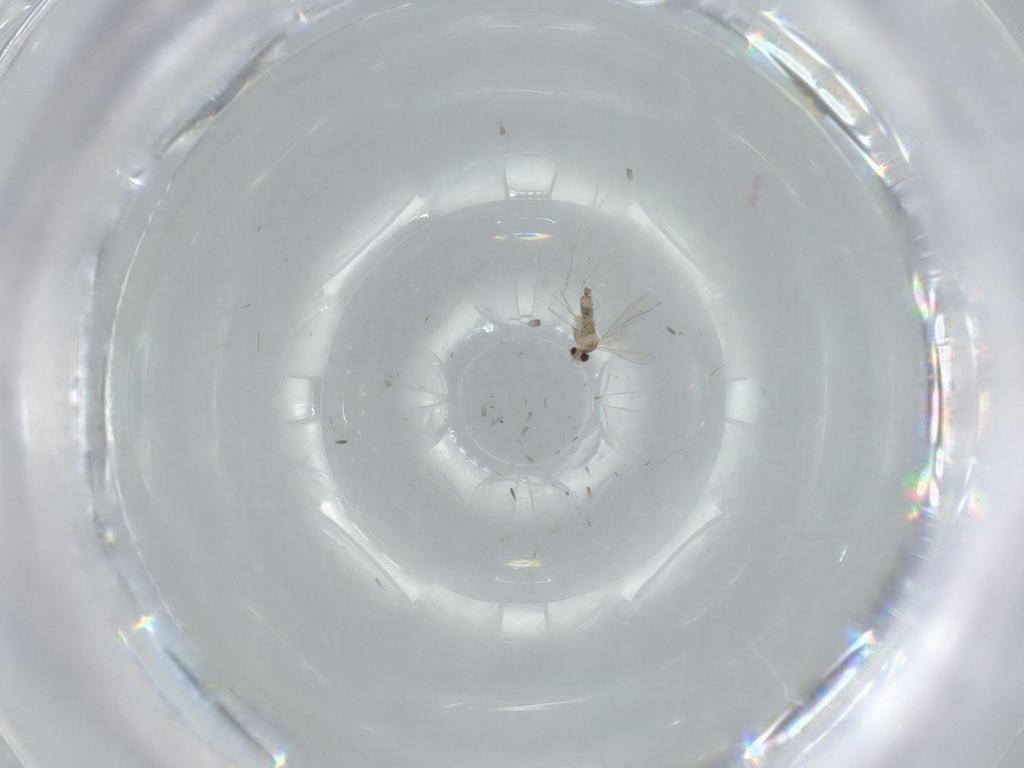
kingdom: Animalia
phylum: Arthropoda
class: Insecta
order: Diptera
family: Cecidomyiidae
